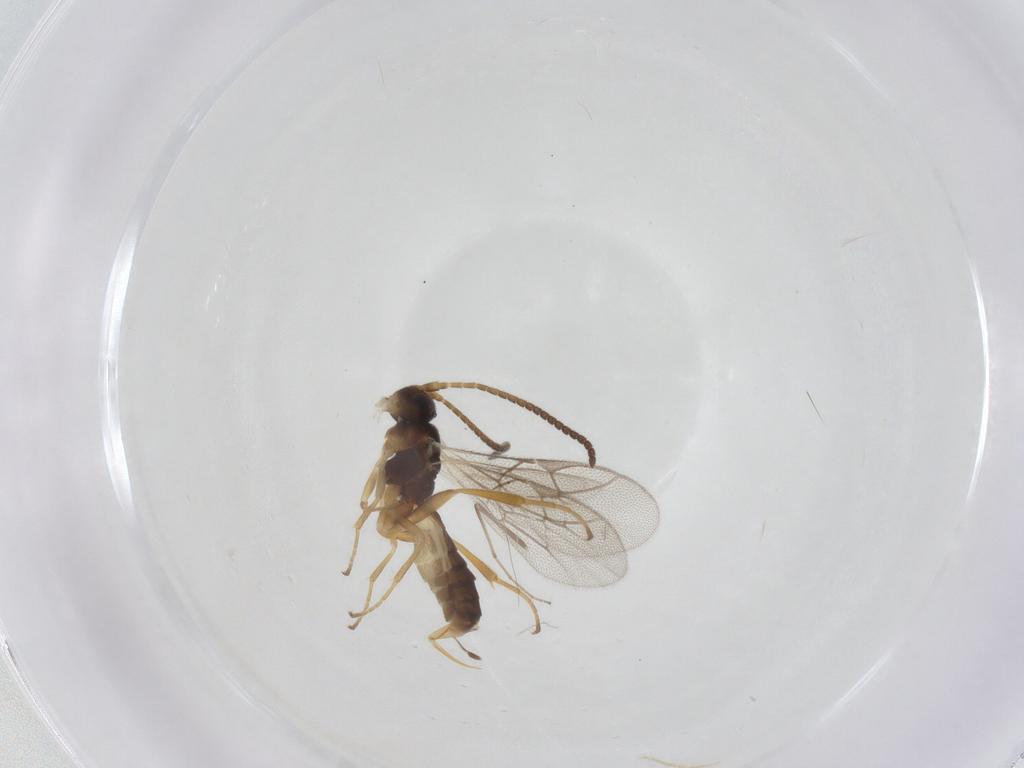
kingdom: Animalia
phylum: Arthropoda
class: Insecta
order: Hymenoptera
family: Ichneumonidae
